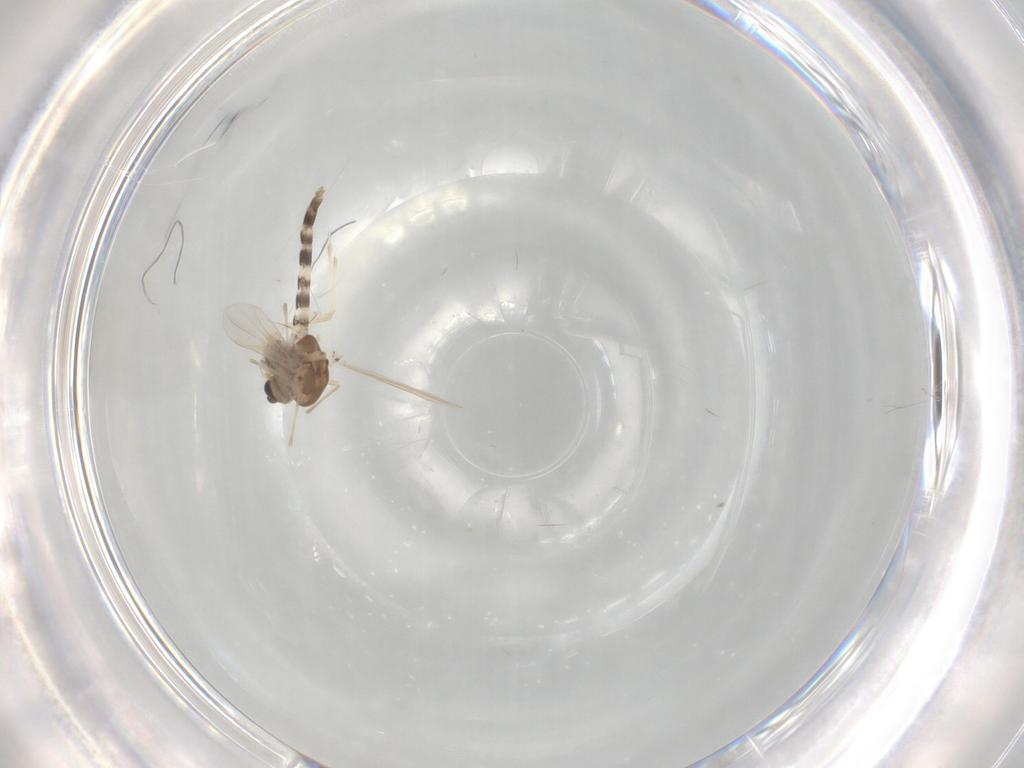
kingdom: Animalia
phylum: Arthropoda
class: Insecta
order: Diptera
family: Chironomidae
